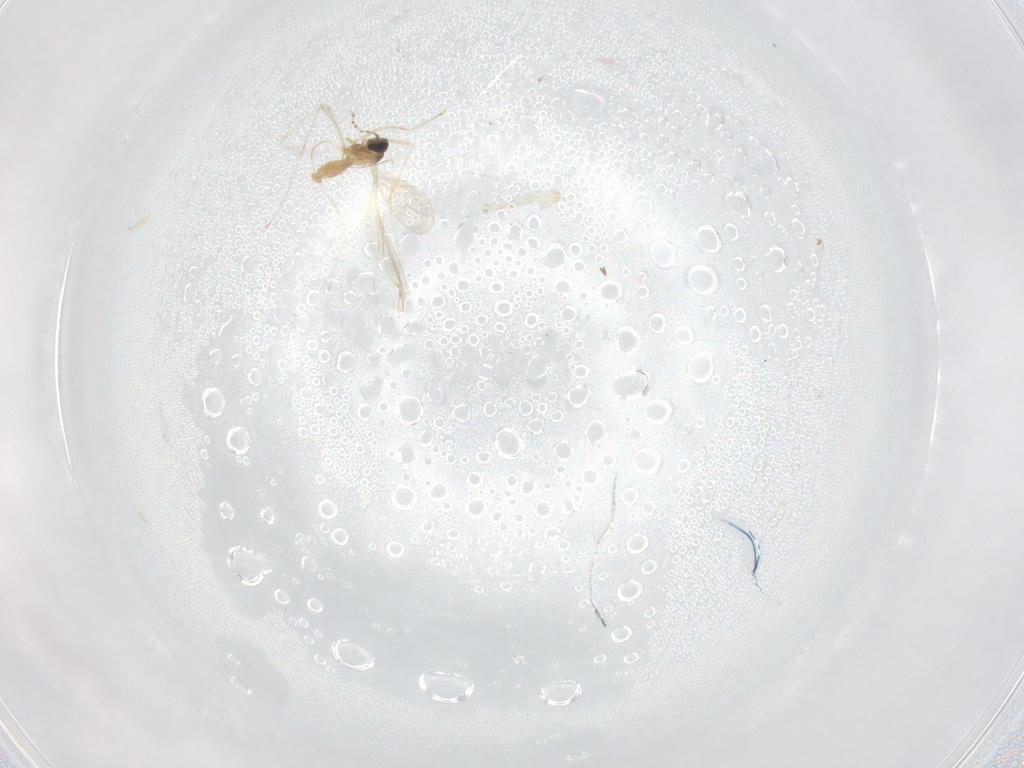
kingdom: Animalia
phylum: Arthropoda
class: Insecta
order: Diptera
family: Cecidomyiidae
